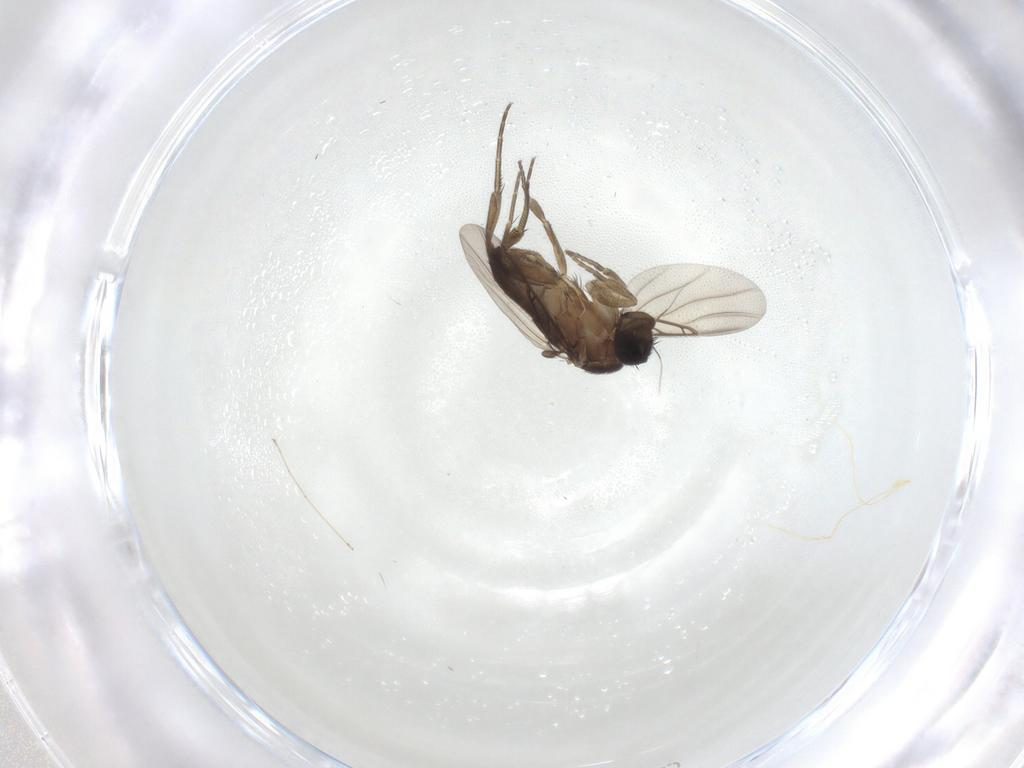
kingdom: Animalia
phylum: Arthropoda
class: Insecta
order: Diptera
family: Phoridae
